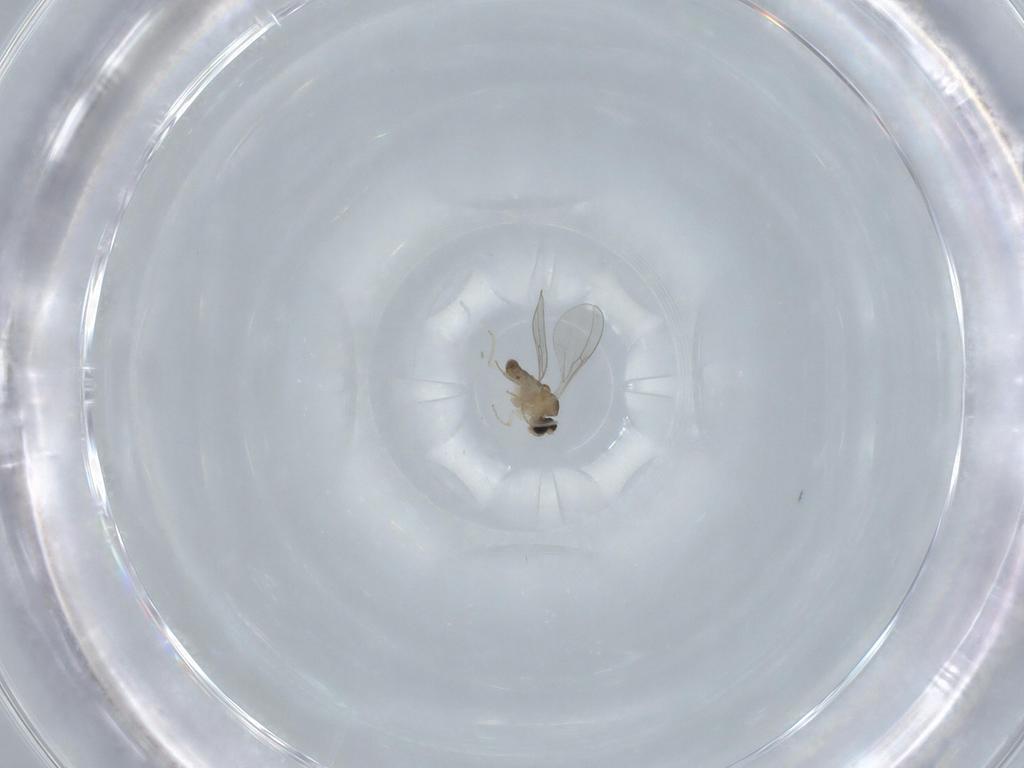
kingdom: Animalia
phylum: Arthropoda
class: Insecta
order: Diptera
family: Cecidomyiidae
